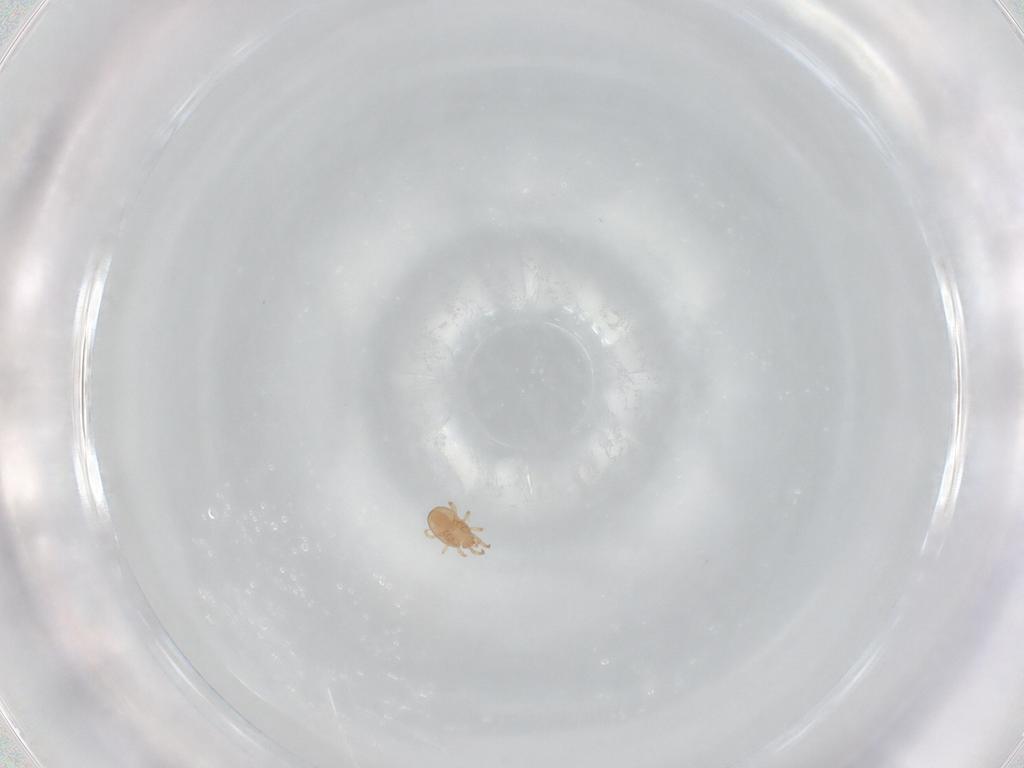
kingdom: Animalia
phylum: Arthropoda
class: Arachnida
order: Mesostigmata
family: Phytoseiidae
